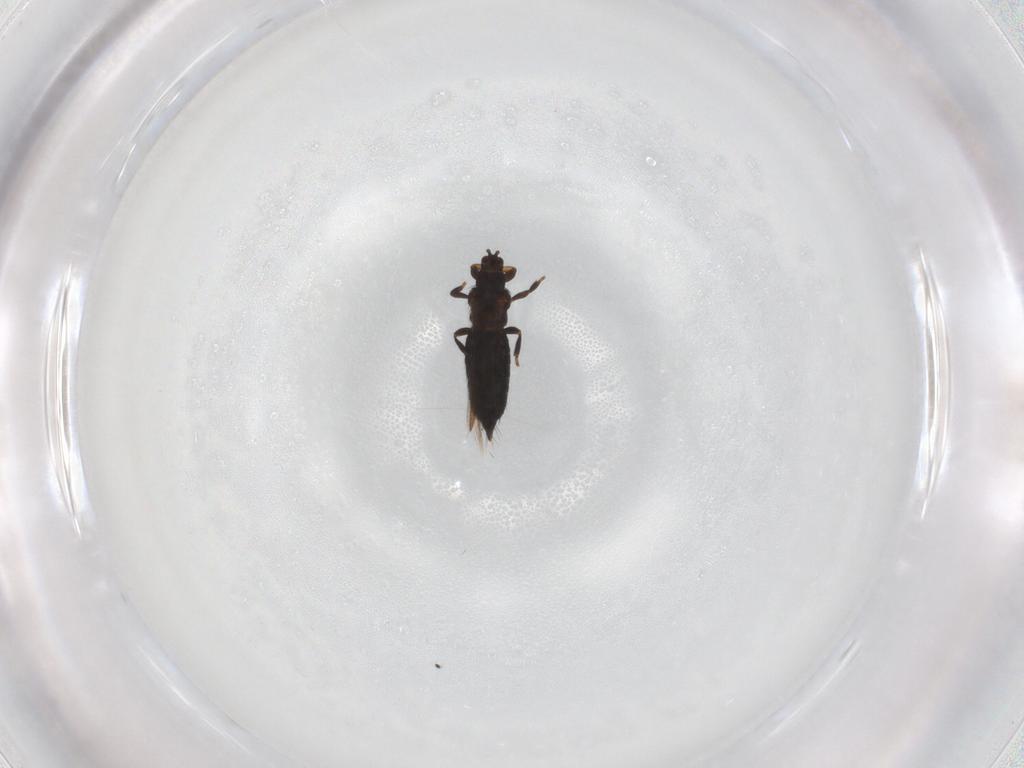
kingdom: Animalia
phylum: Arthropoda
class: Insecta
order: Thysanoptera
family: Thripidae
